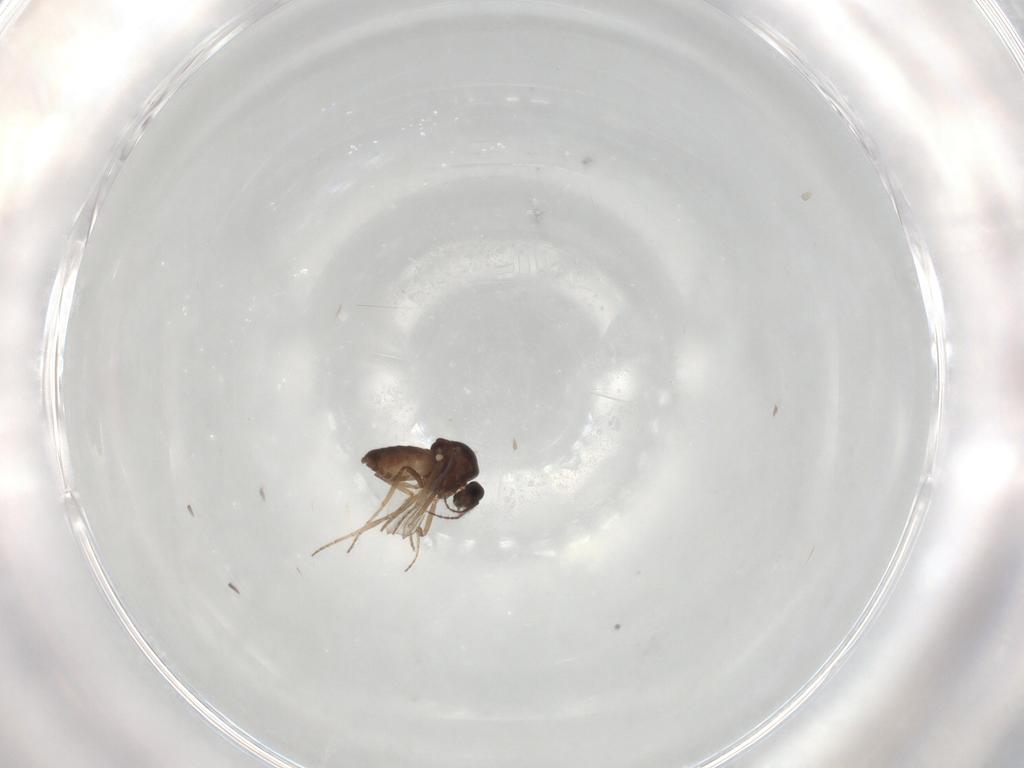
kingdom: Animalia
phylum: Arthropoda
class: Insecta
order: Diptera
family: Ceratopogonidae
